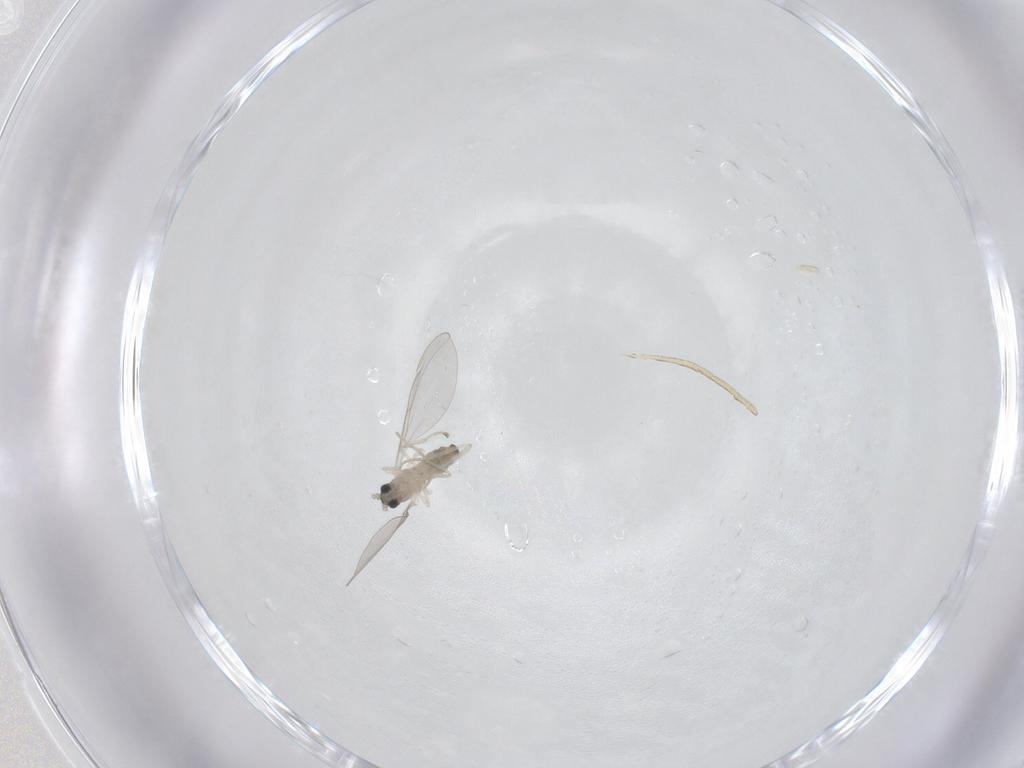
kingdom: Animalia
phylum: Arthropoda
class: Insecta
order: Diptera
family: Cecidomyiidae
